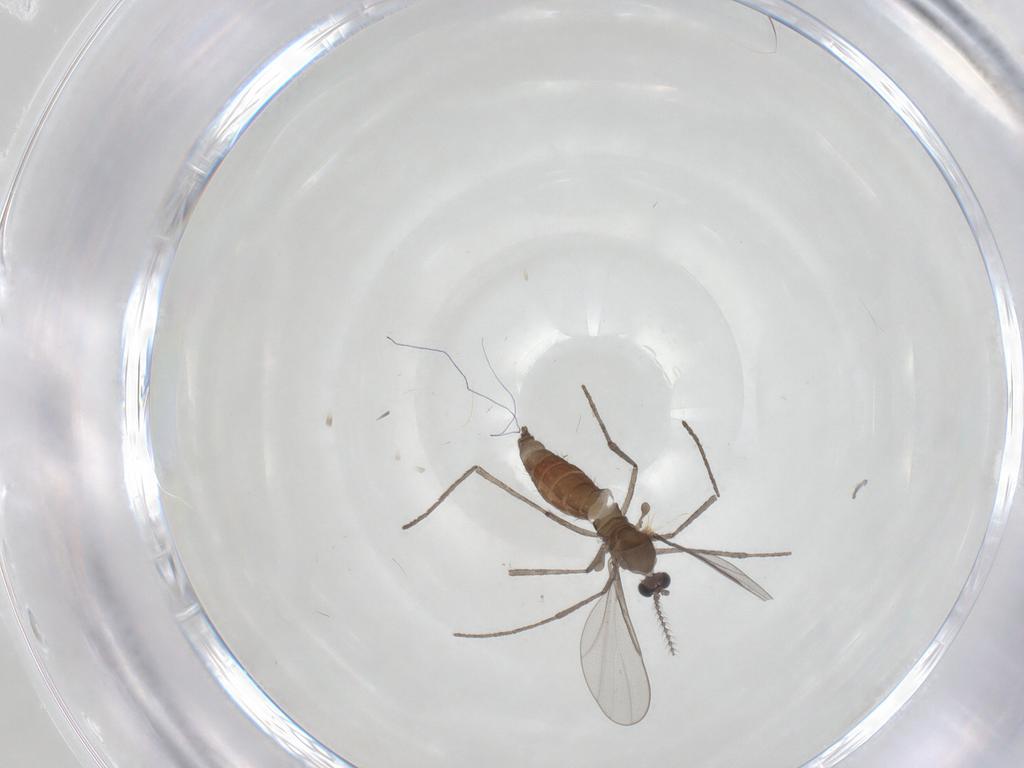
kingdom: Animalia
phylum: Arthropoda
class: Insecta
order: Diptera
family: Cecidomyiidae
